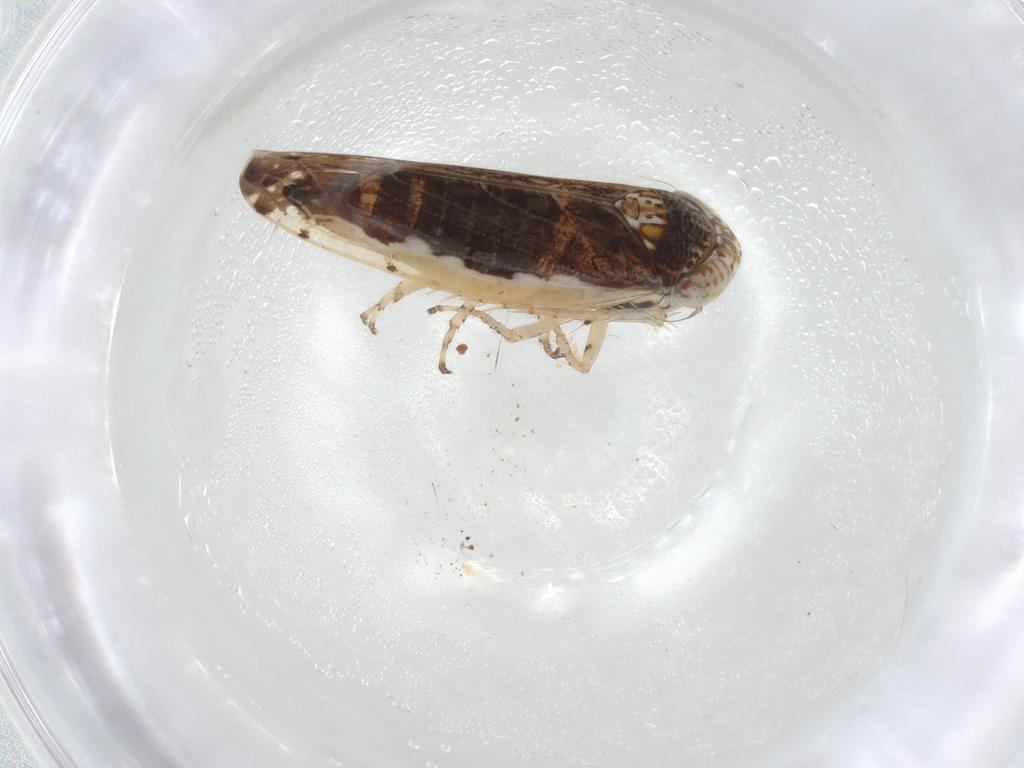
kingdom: Animalia
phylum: Arthropoda
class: Insecta
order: Hemiptera
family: Cicadellidae
